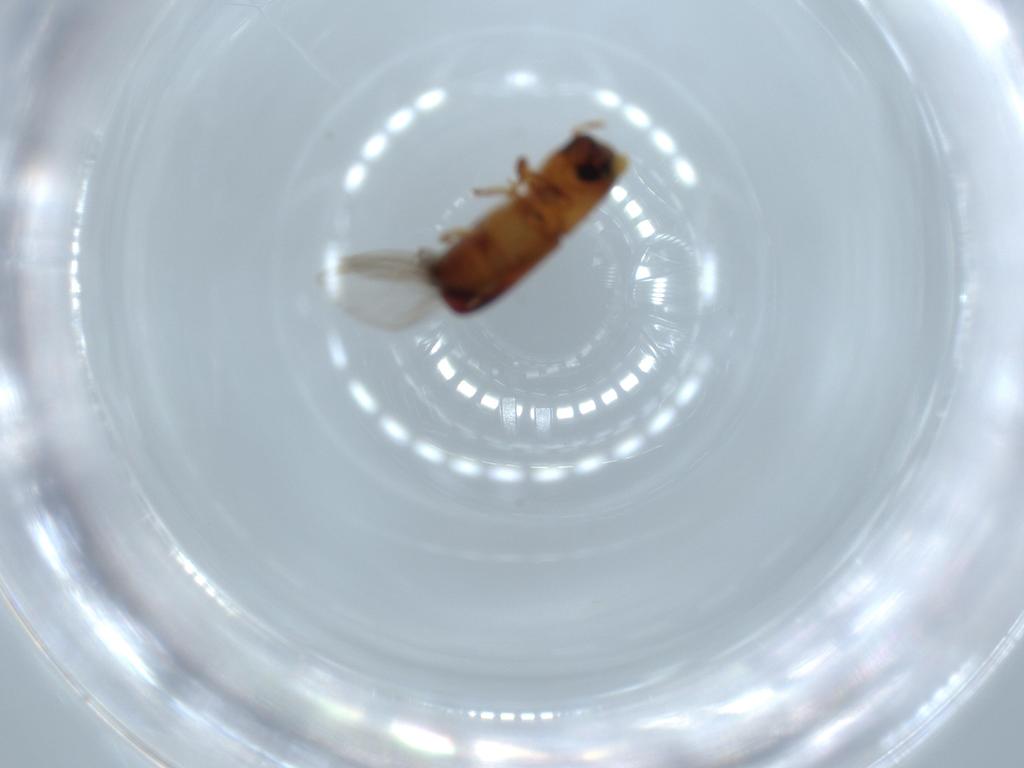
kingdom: Animalia
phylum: Arthropoda
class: Insecta
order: Coleoptera
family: Curculionidae
